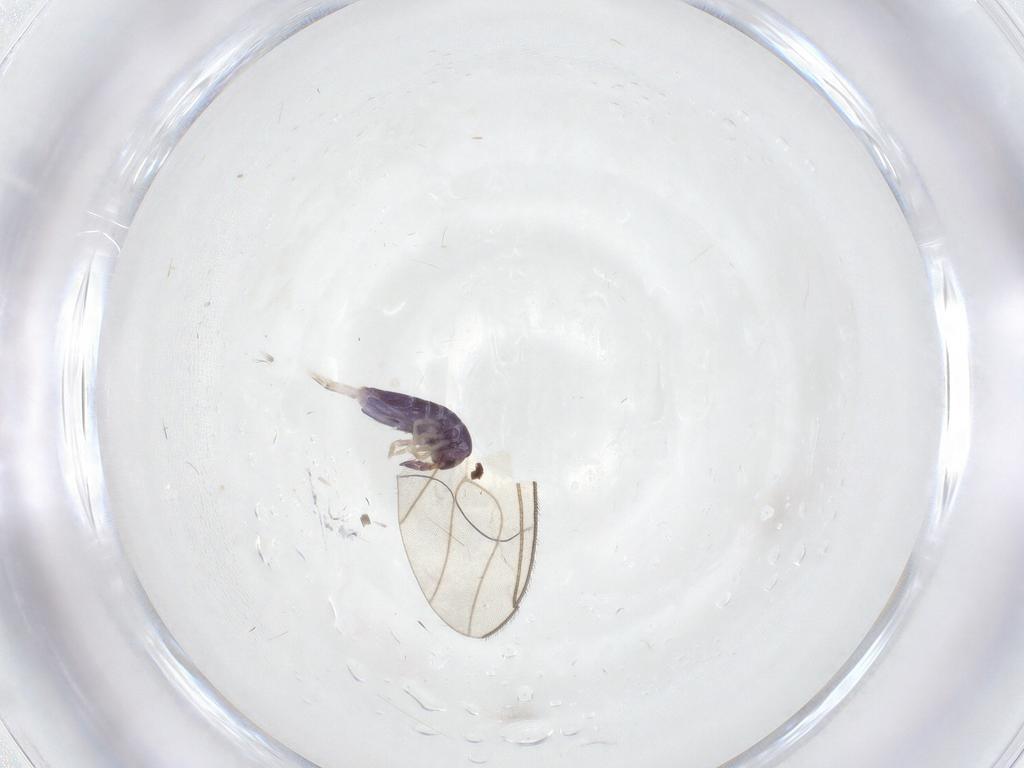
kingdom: Animalia
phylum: Arthropoda
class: Collembola
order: Entomobryomorpha
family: Entomobryidae
